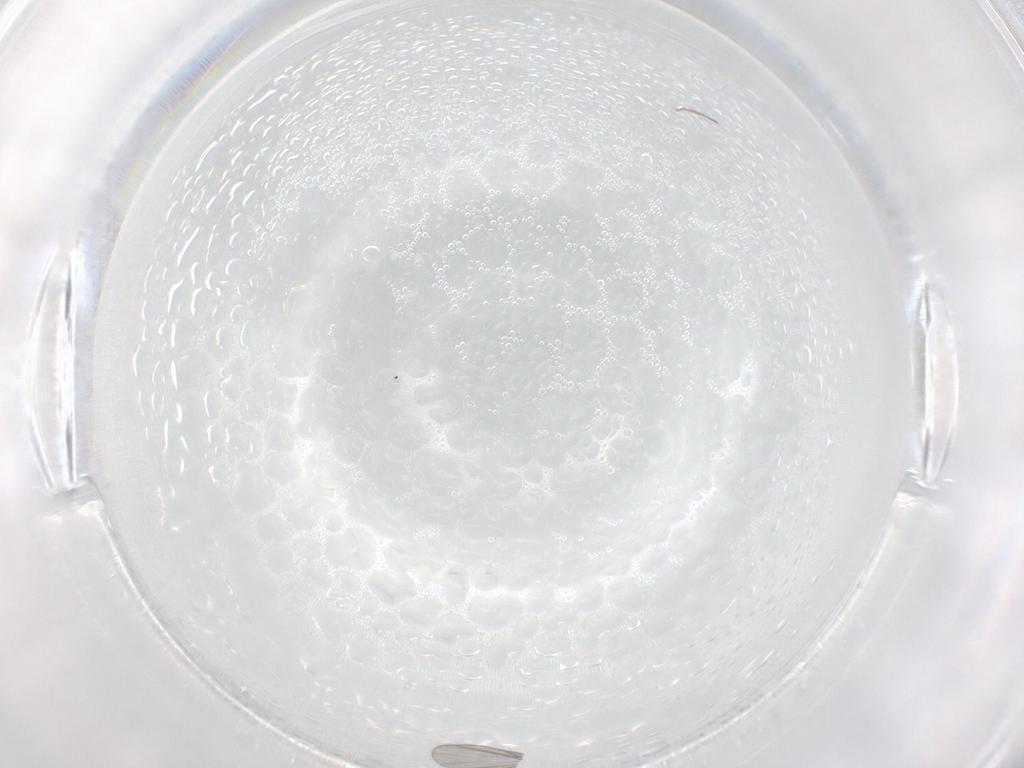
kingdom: Animalia
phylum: Arthropoda
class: Insecta
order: Diptera
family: Sciaridae
